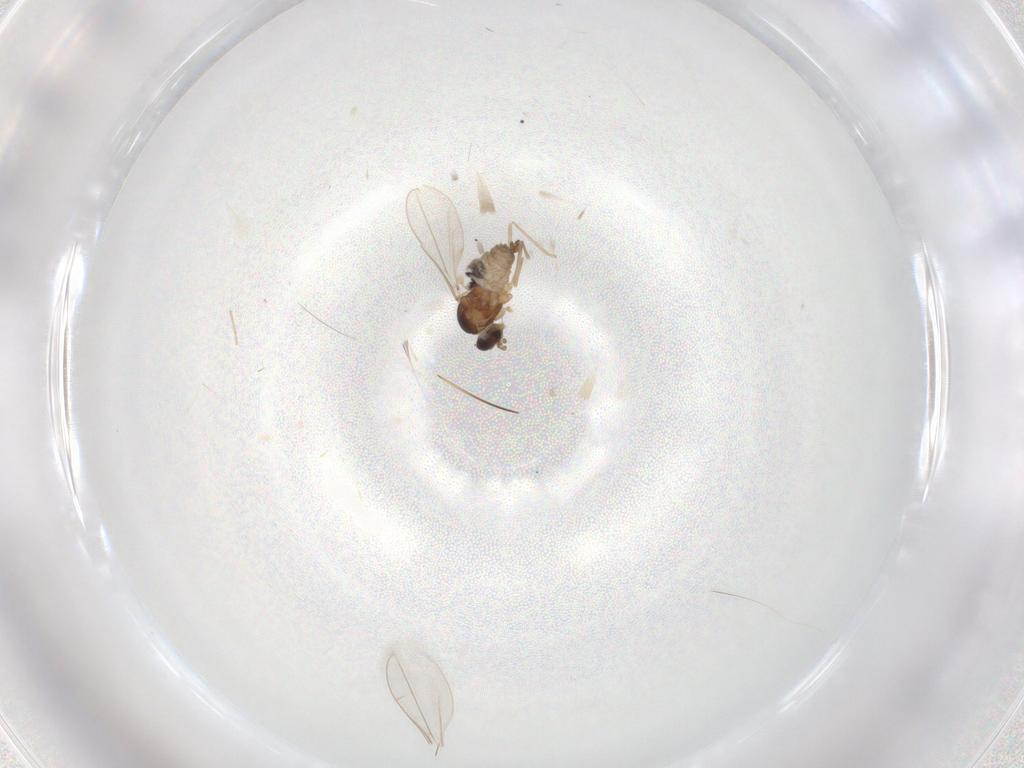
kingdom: Animalia
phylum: Arthropoda
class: Insecta
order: Diptera
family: Cecidomyiidae
